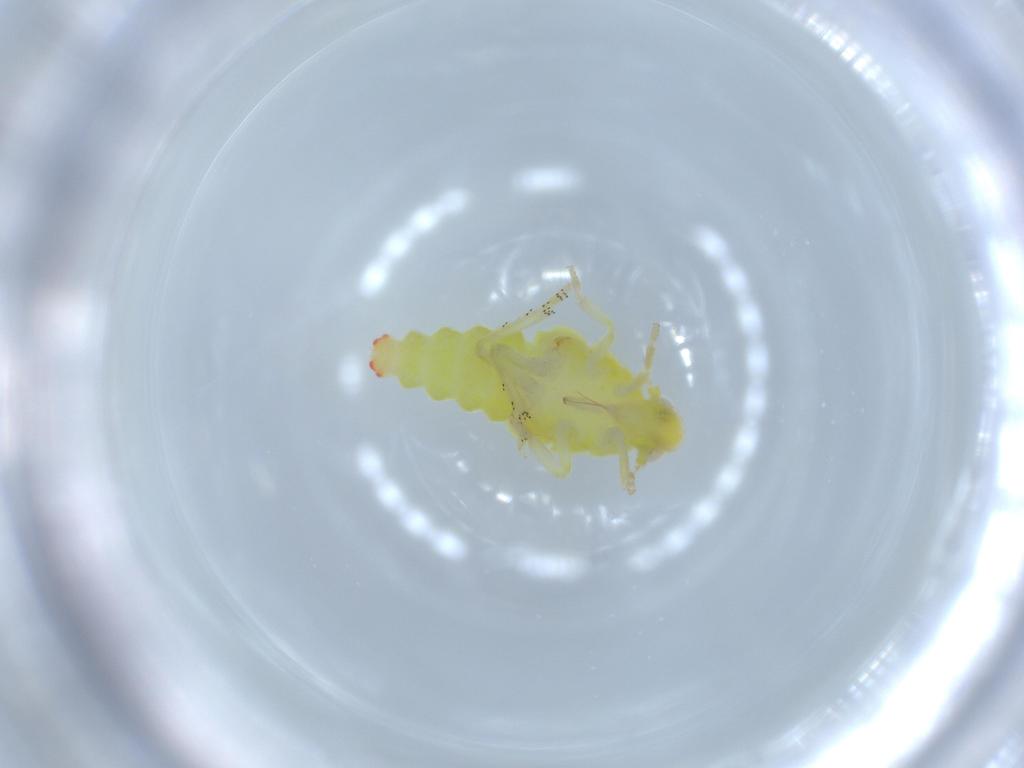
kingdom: Animalia
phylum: Arthropoda
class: Insecta
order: Hemiptera
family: Fulgoroidea_incertae_sedis
